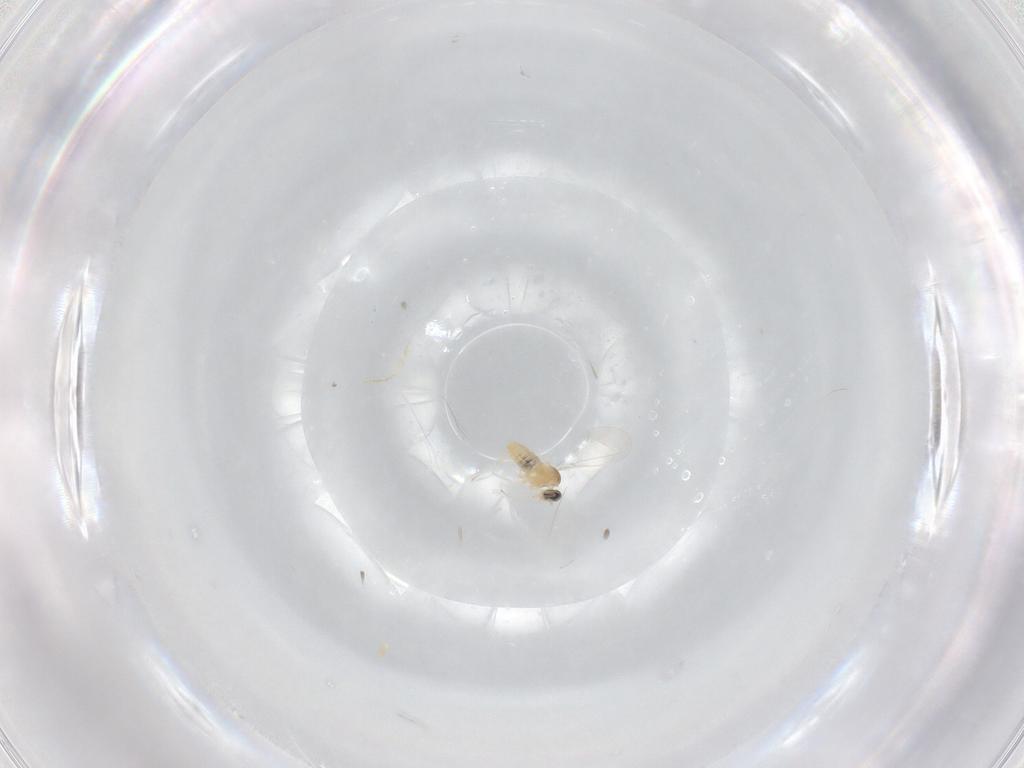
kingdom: Animalia
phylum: Arthropoda
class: Insecta
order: Diptera
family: Cecidomyiidae
